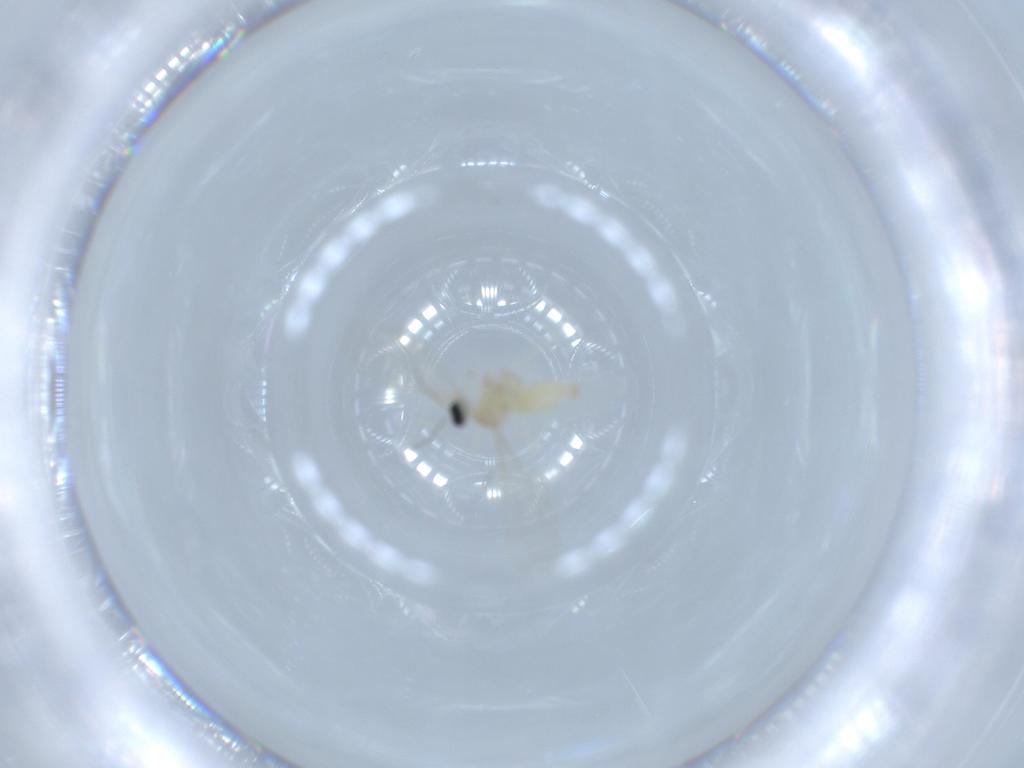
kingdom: Animalia
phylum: Arthropoda
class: Insecta
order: Diptera
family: Cecidomyiidae
